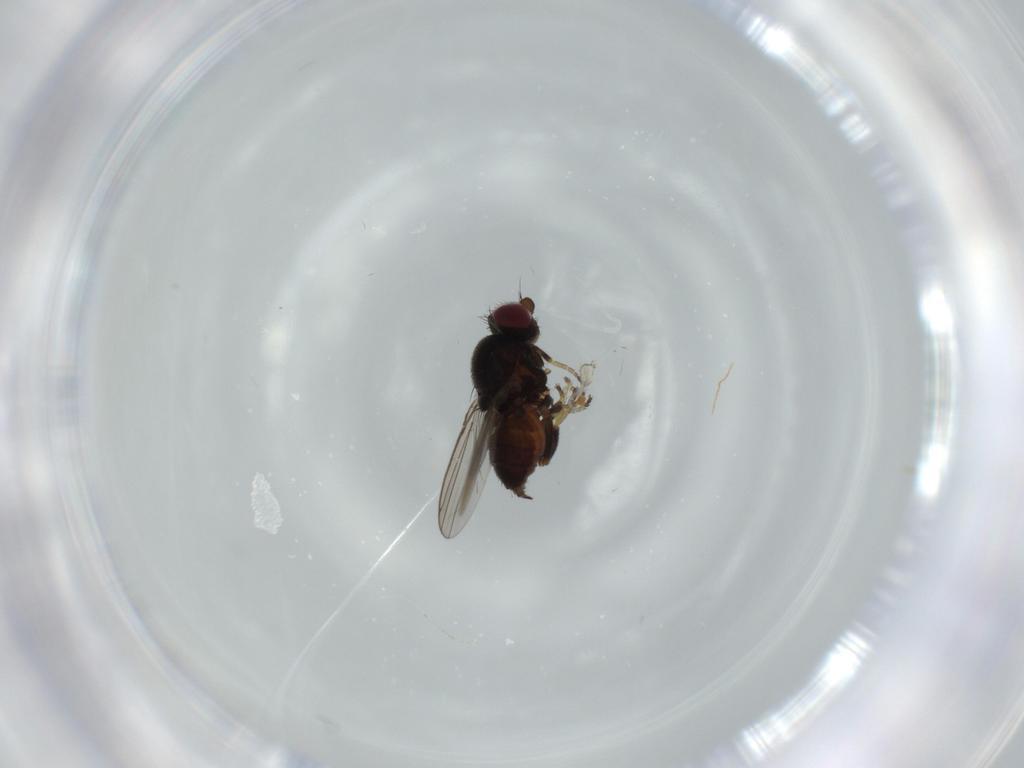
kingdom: Animalia
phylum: Arthropoda
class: Insecta
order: Diptera
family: Chloropidae
